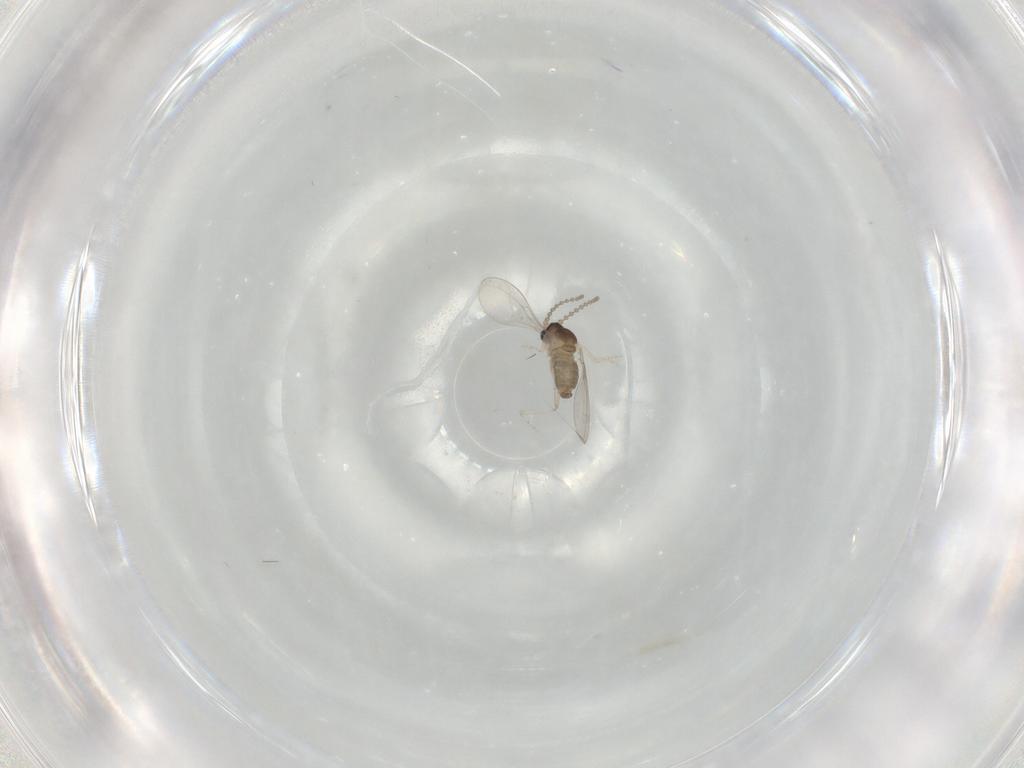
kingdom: Animalia
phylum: Arthropoda
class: Insecta
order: Diptera
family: Cecidomyiidae
